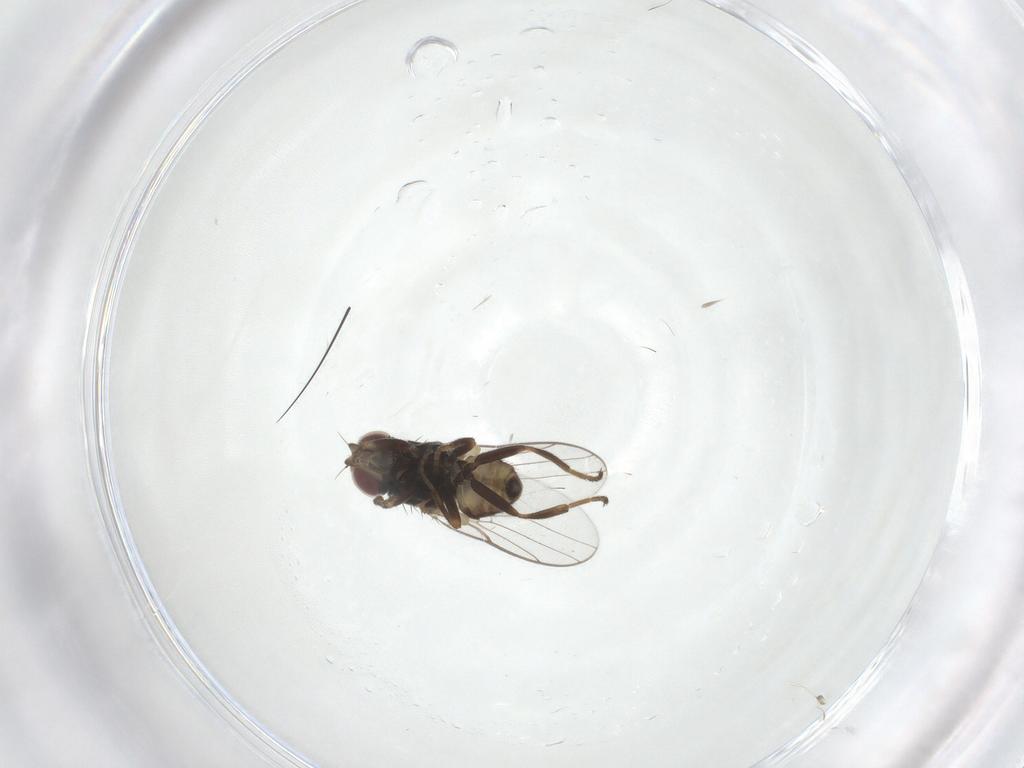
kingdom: Animalia
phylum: Arthropoda
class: Insecta
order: Diptera
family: Chloropidae
